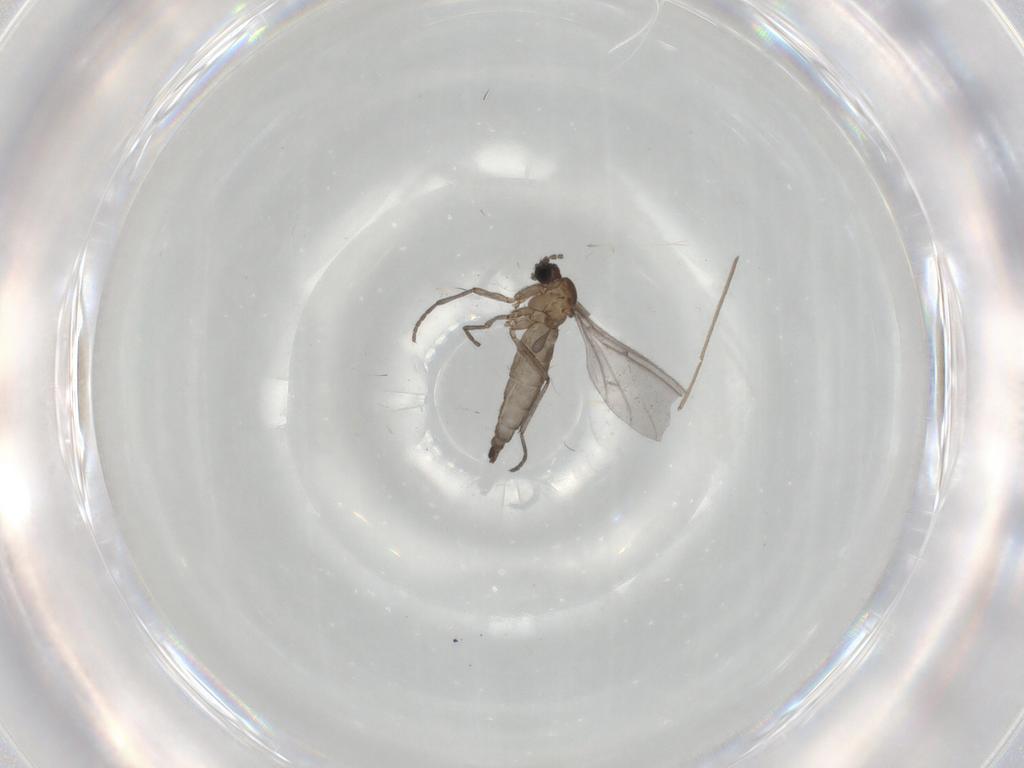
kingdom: Animalia
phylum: Arthropoda
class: Insecta
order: Diptera
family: Sciaridae
